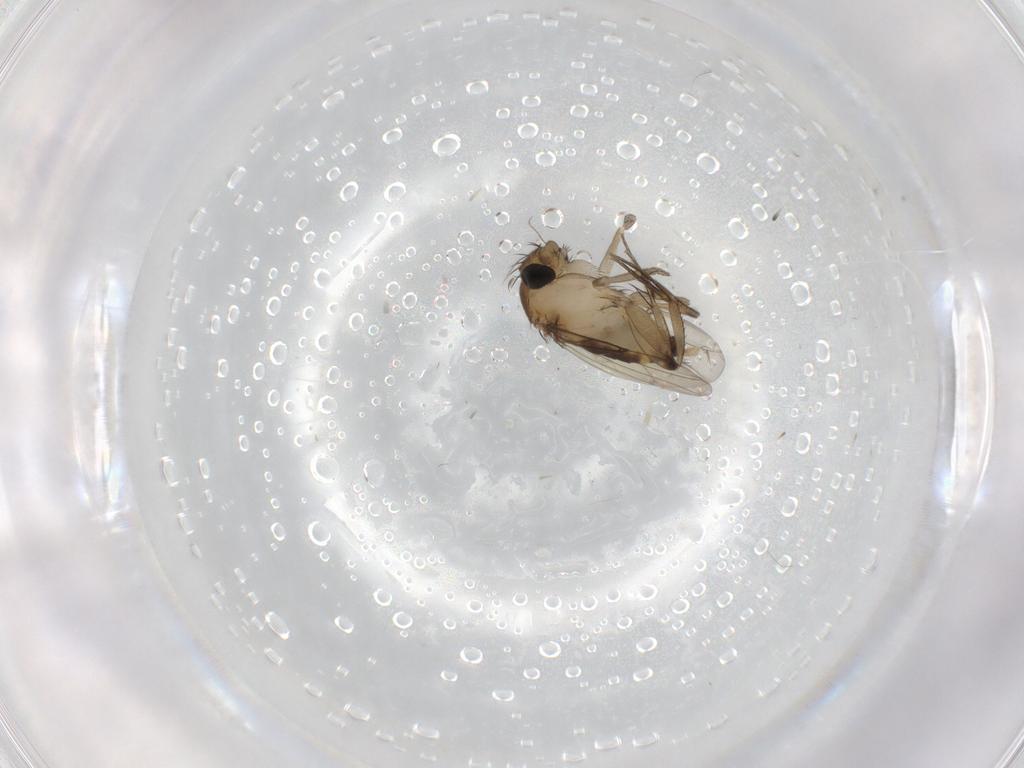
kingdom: Animalia
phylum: Arthropoda
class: Insecta
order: Diptera
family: Phoridae
